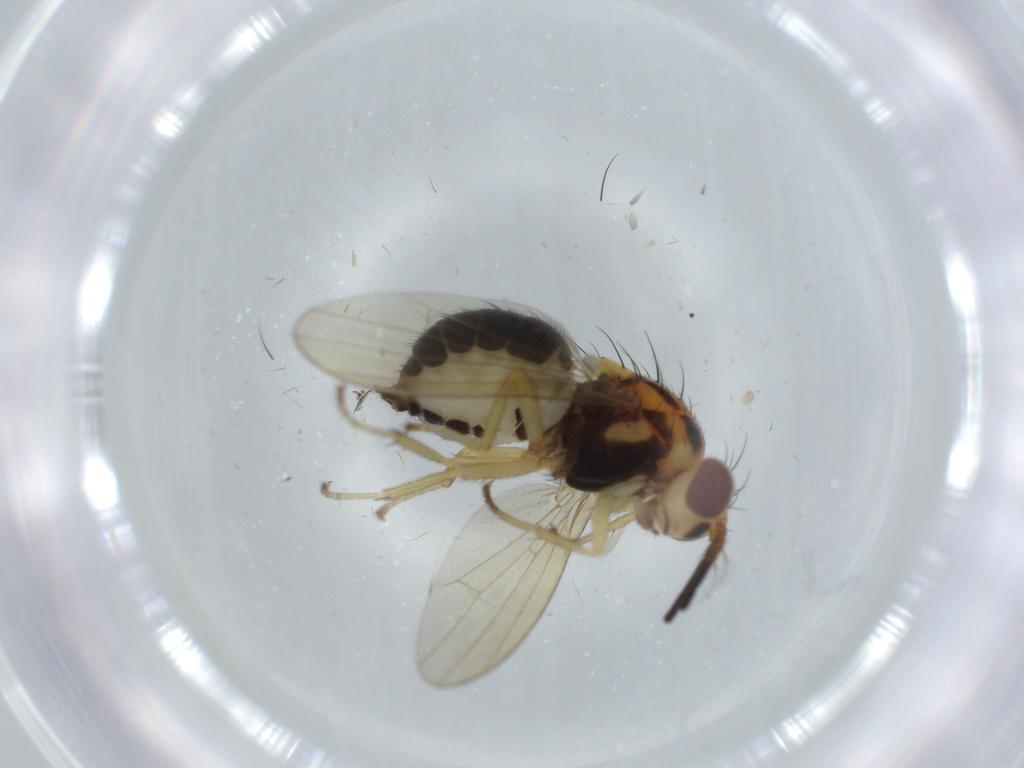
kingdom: Animalia
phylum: Arthropoda
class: Insecta
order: Diptera
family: Lauxaniidae
